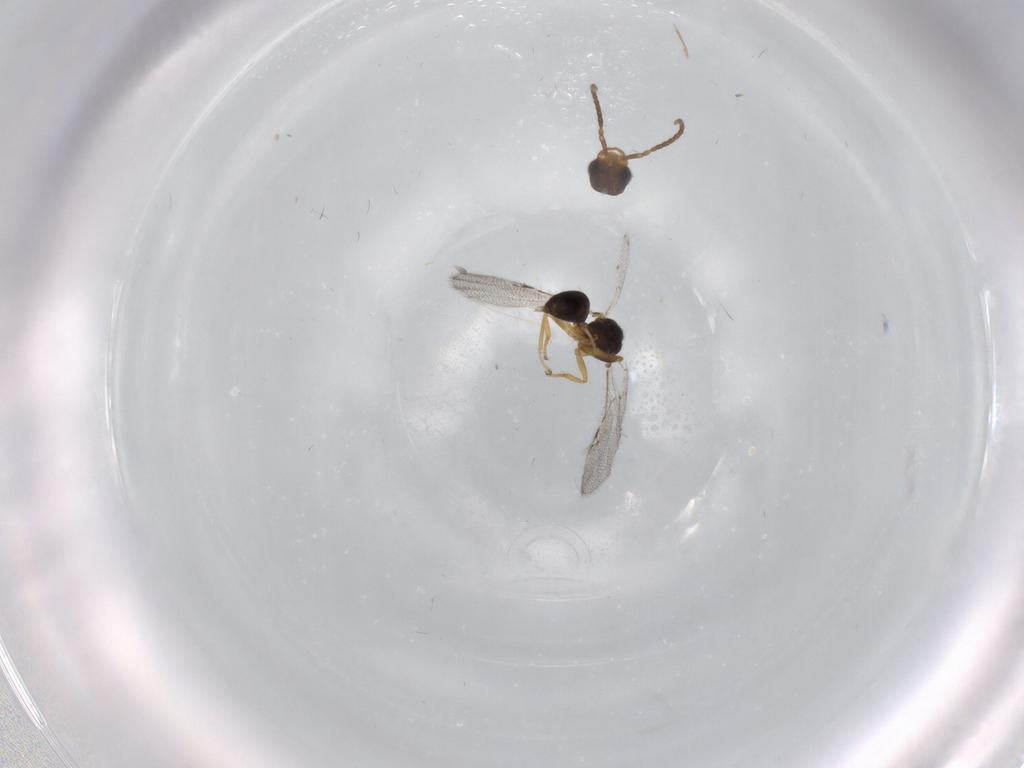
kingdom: Animalia
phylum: Arthropoda
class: Insecta
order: Hymenoptera
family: Bethylidae
